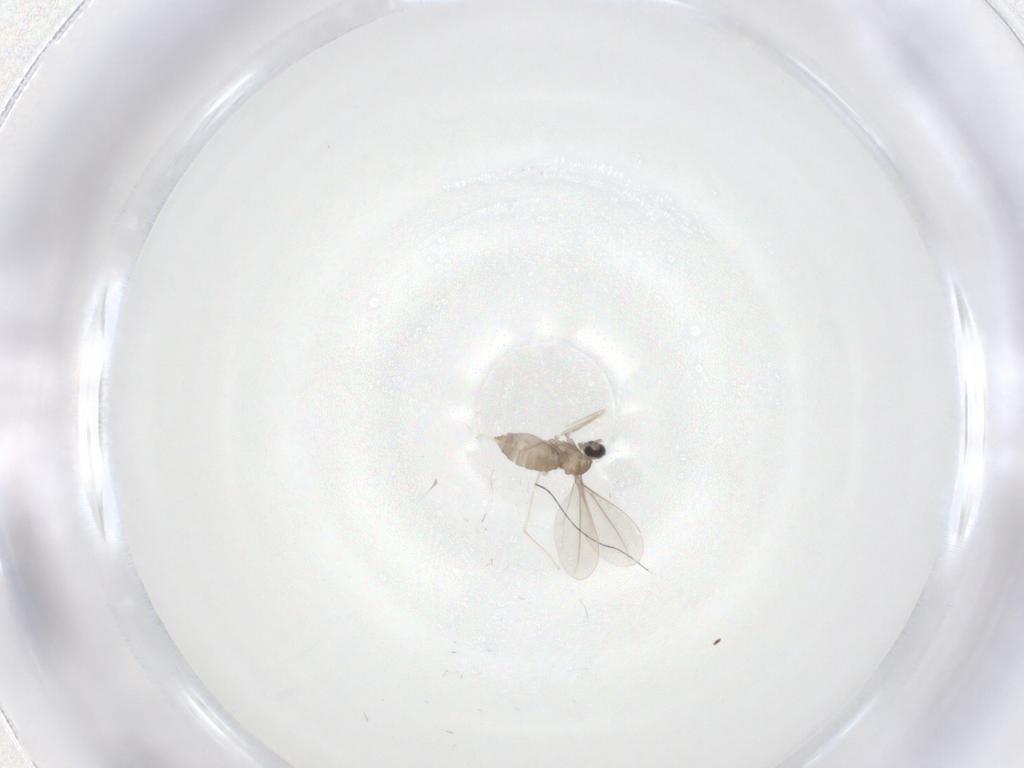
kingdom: Animalia
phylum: Arthropoda
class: Insecta
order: Diptera
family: Cecidomyiidae
